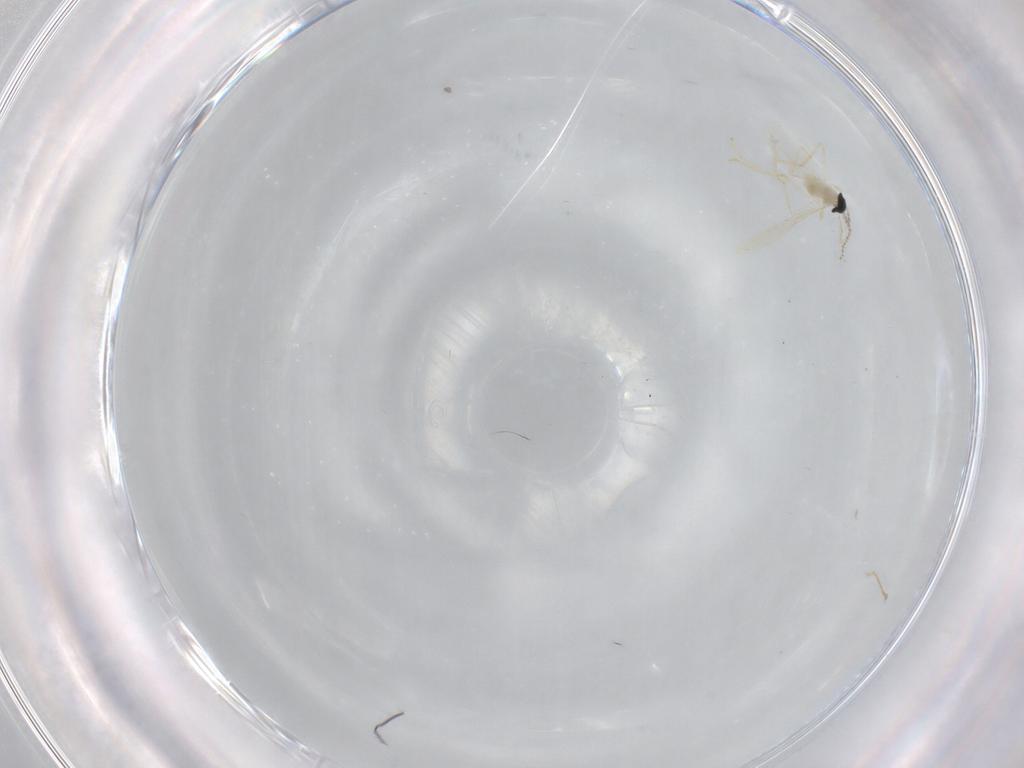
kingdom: Animalia
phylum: Arthropoda
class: Insecta
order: Diptera
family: Cecidomyiidae
